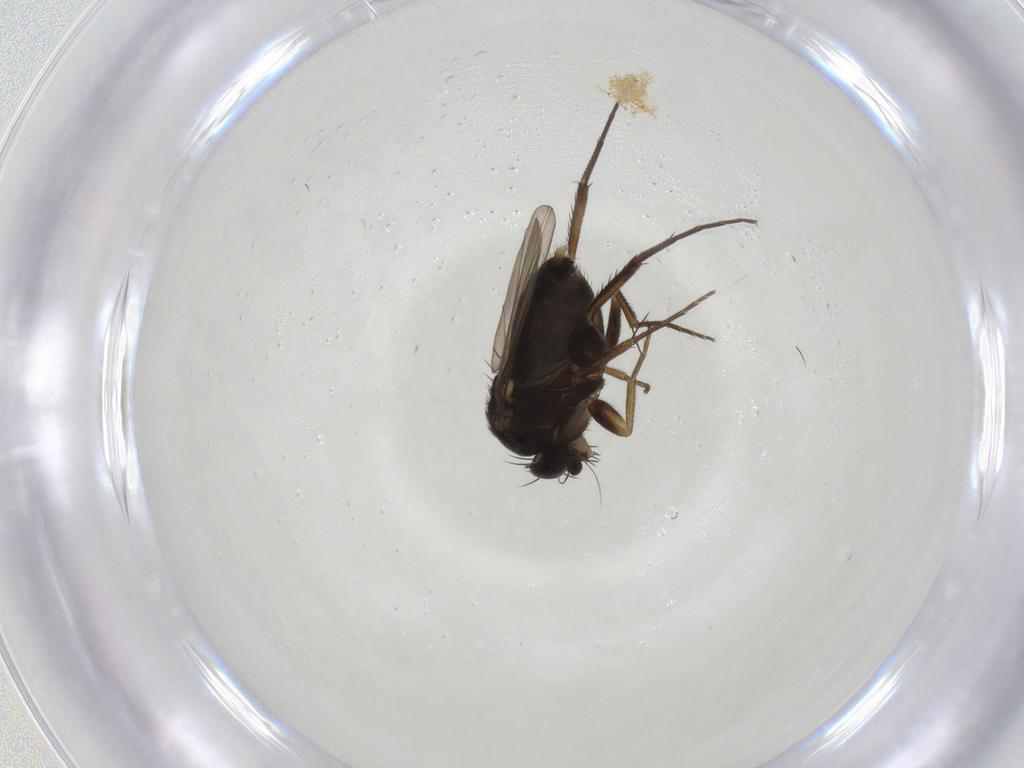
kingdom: Animalia
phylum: Arthropoda
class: Insecta
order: Diptera
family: Phoridae
